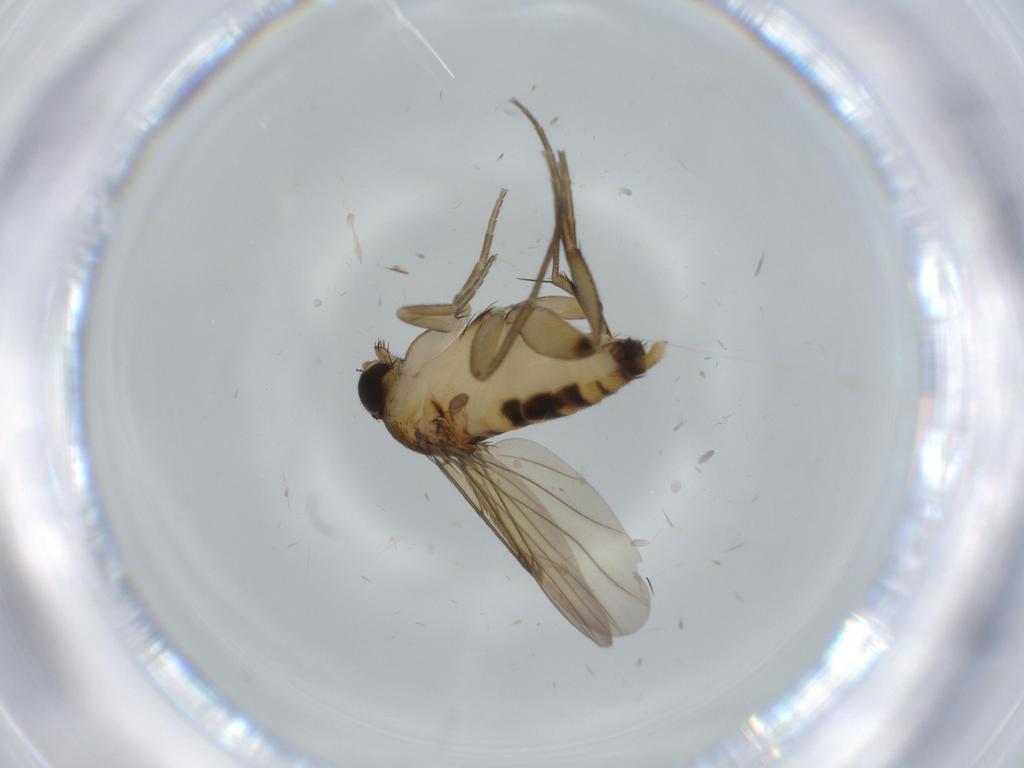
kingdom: Animalia
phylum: Arthropoda
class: Insecta
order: Diptera
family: Phoridae
